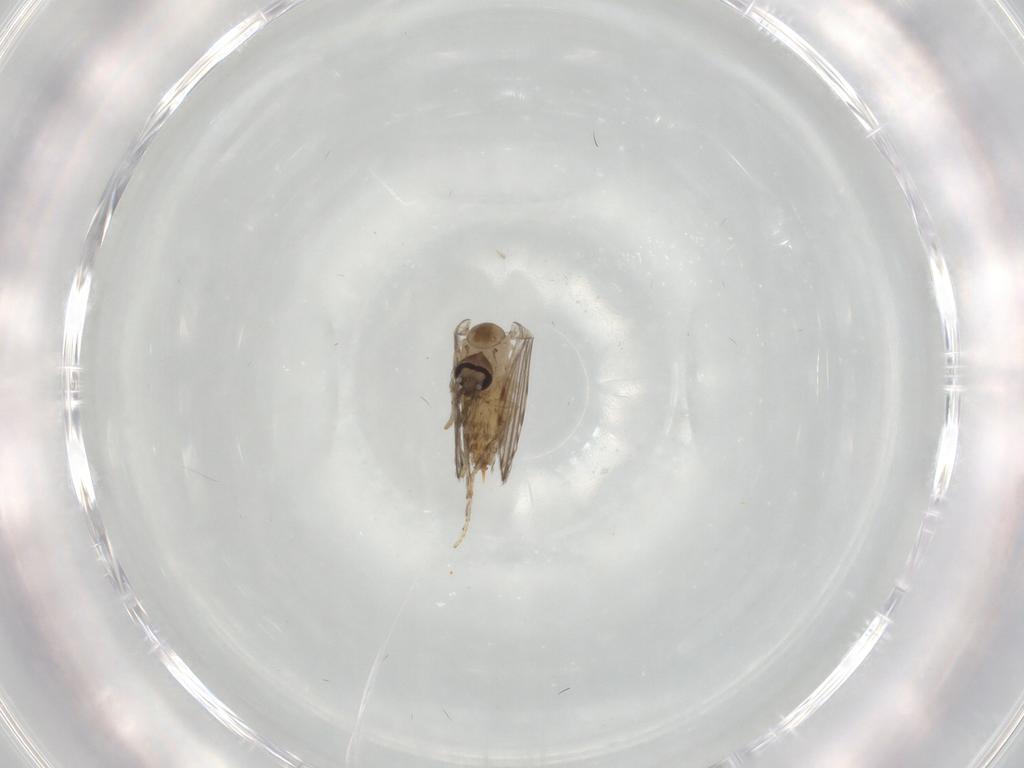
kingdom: Animalia
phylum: Arthropoda
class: Insecta
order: Diptera
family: Psychodidae
